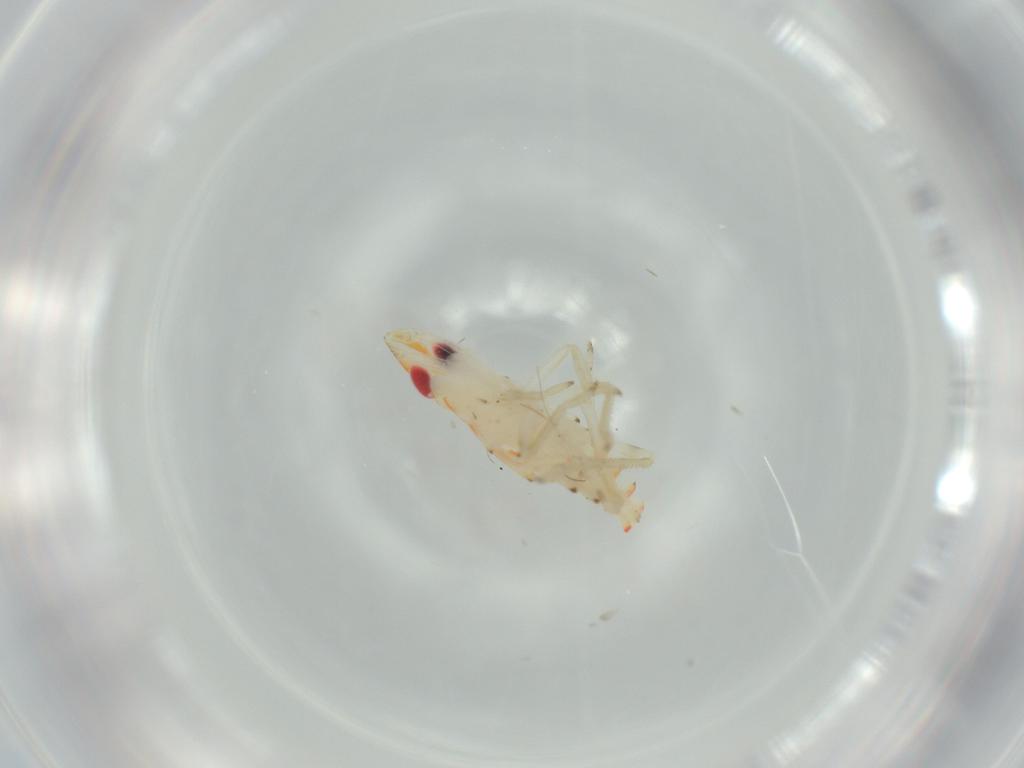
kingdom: Animalia
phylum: Arthropoda
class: Insecta
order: Hemiptera
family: Tropiduchidae
